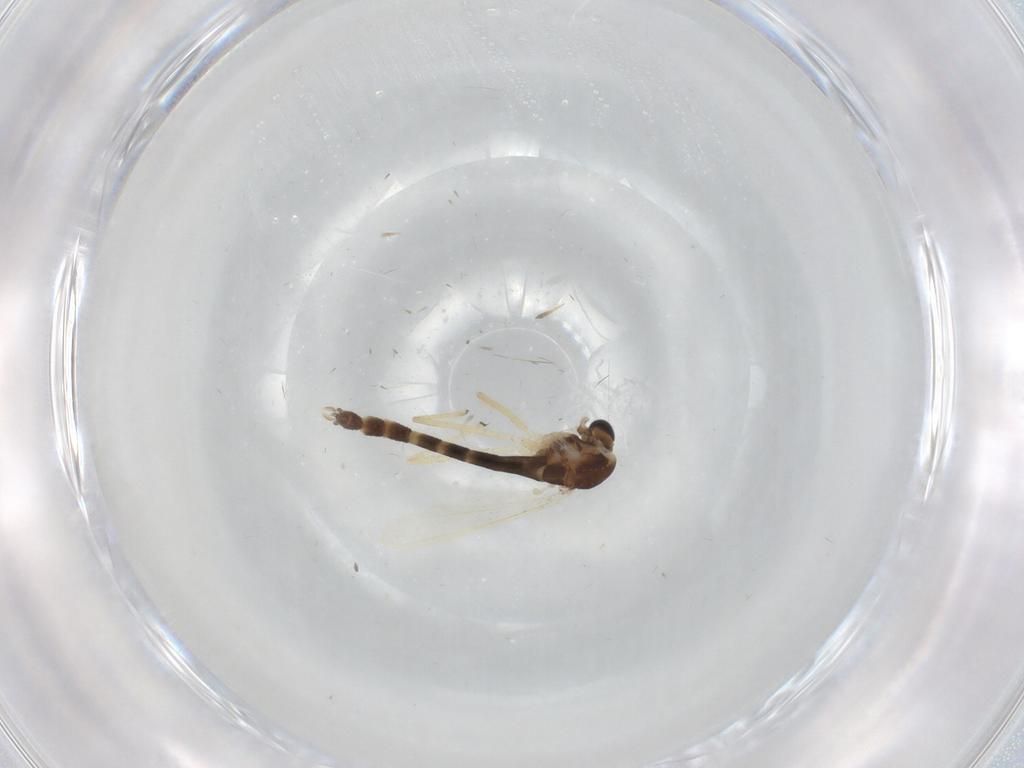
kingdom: Animalia
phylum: Arthropoda
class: Insecta
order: Diptera
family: Chironomidae
